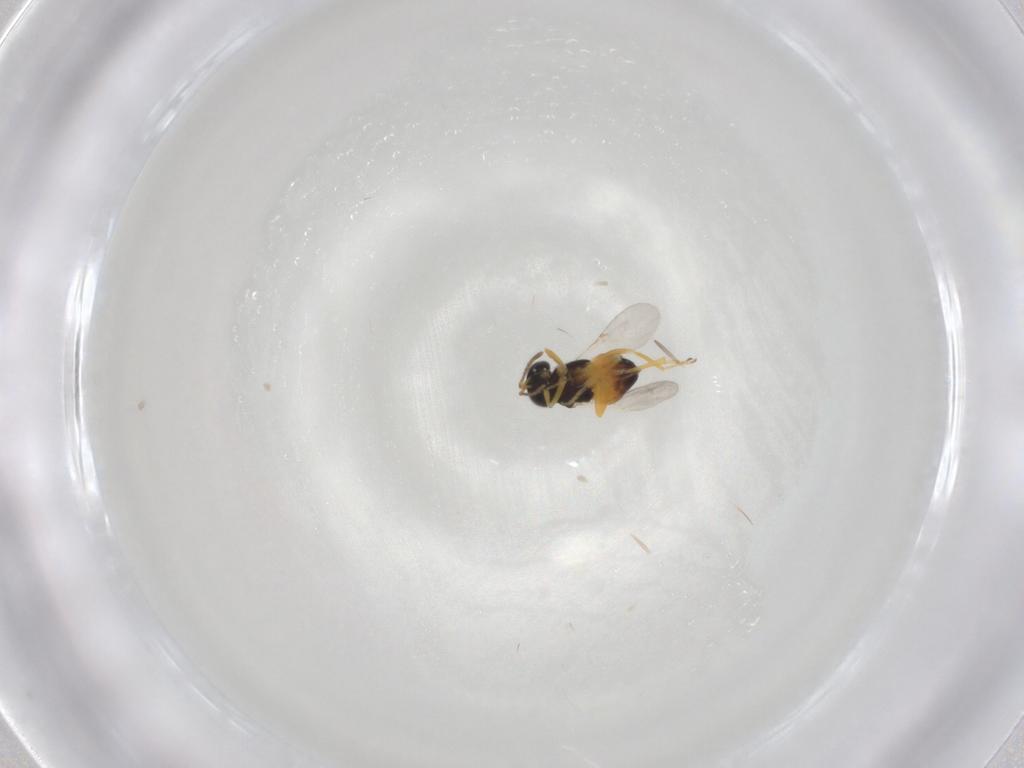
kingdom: Animalia
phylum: Arthropoda
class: Insecta
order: Hymenoptera
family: Encyrtidae
